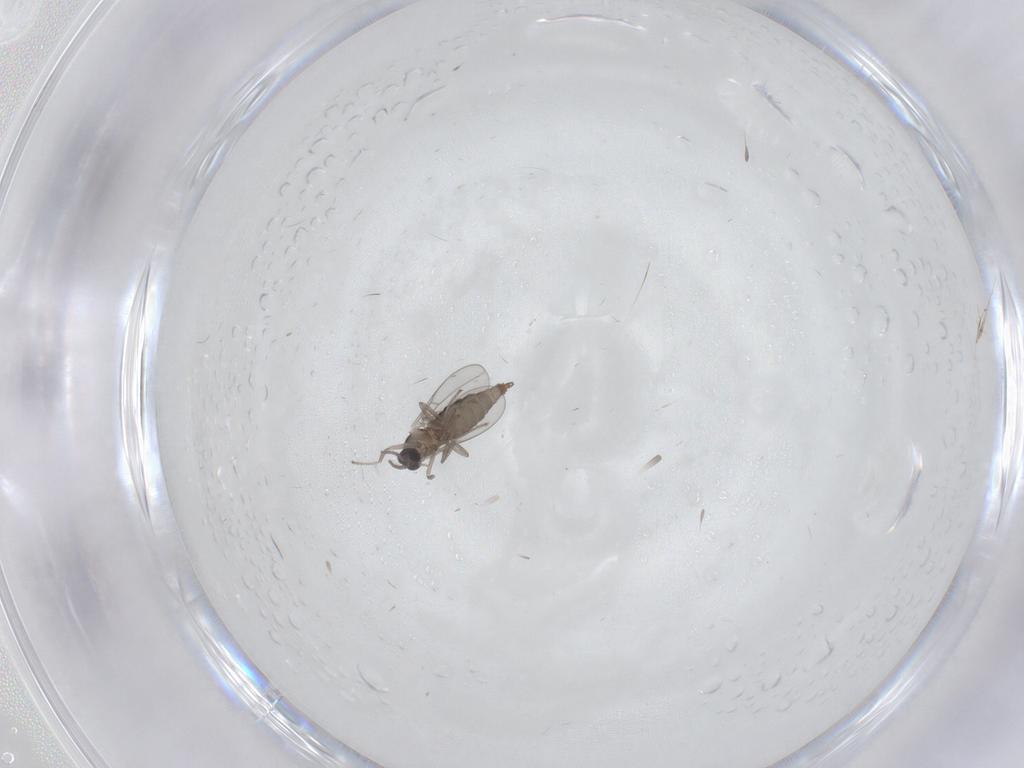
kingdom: Animalia
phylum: Arthropoda
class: Insecta
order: Diptera
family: Cecidomyiidae
